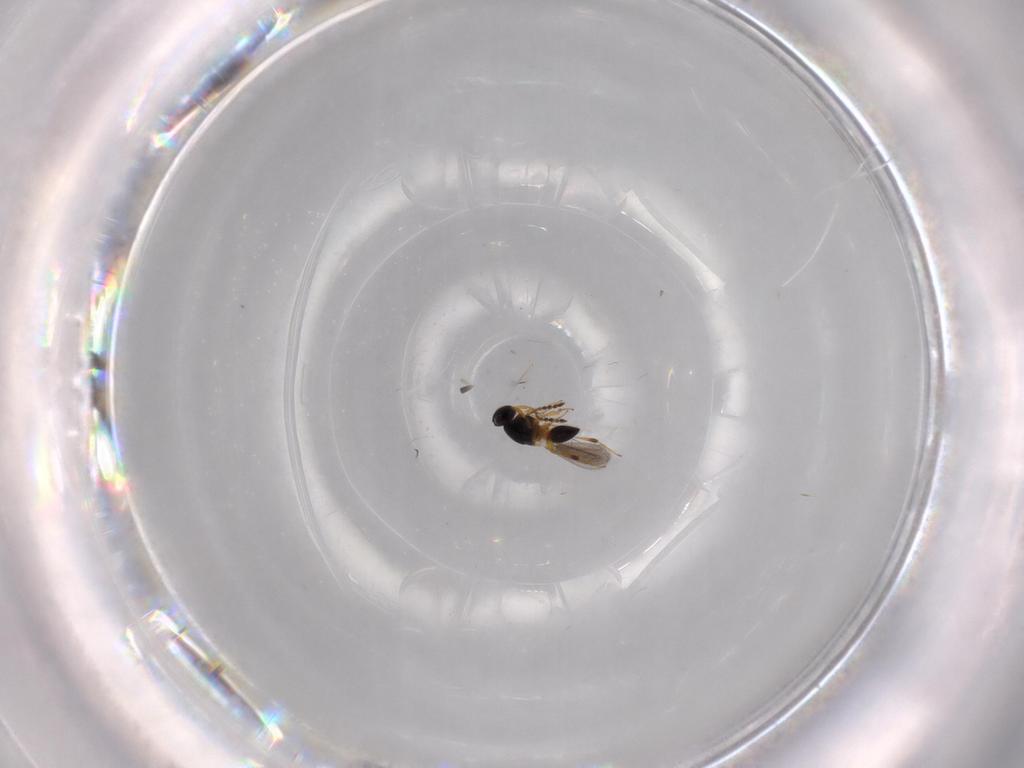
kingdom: Animalia
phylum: Arthropoda
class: Insecta
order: Hymenoptera
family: Platygastridae
